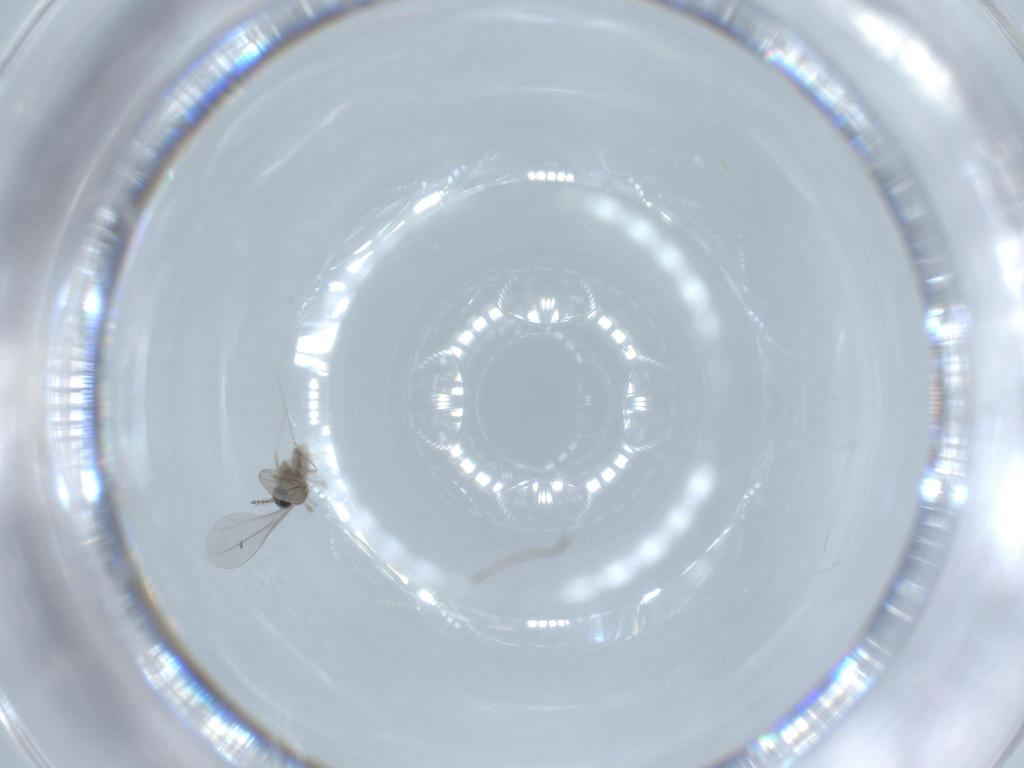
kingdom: Animalia
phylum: Arthropoda
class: Insecta
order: Diptera
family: Cecidomyiidae
